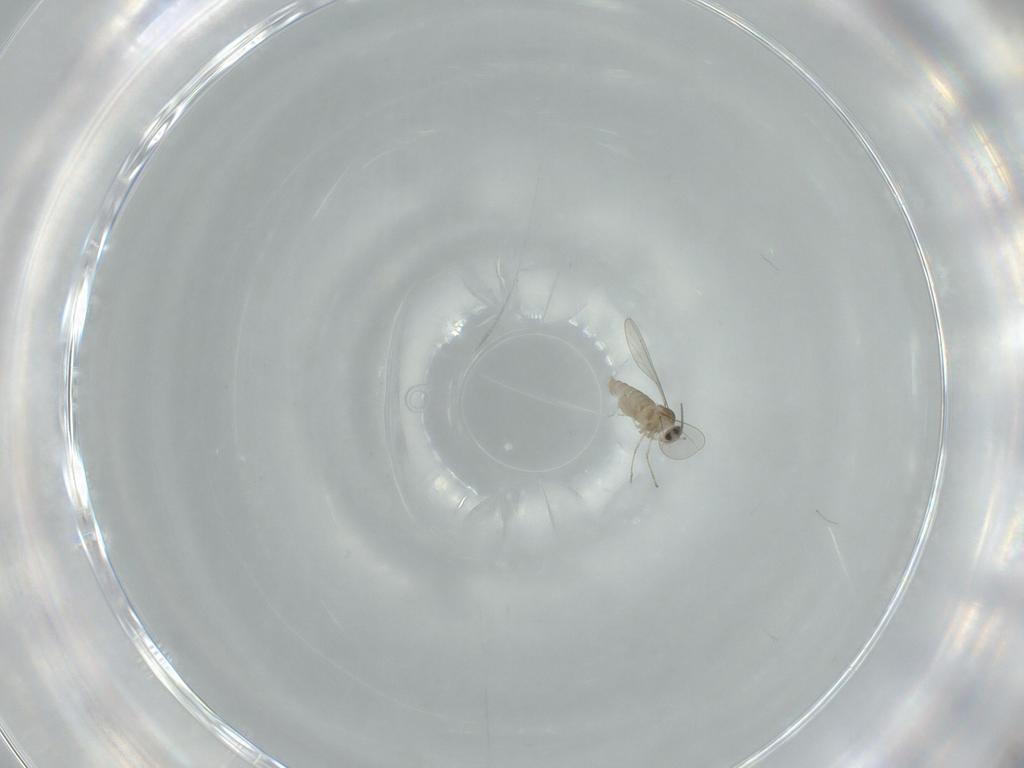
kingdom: Animalia
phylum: Arthropoda
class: Insecta
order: Diptera
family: Cecidomyiidae
